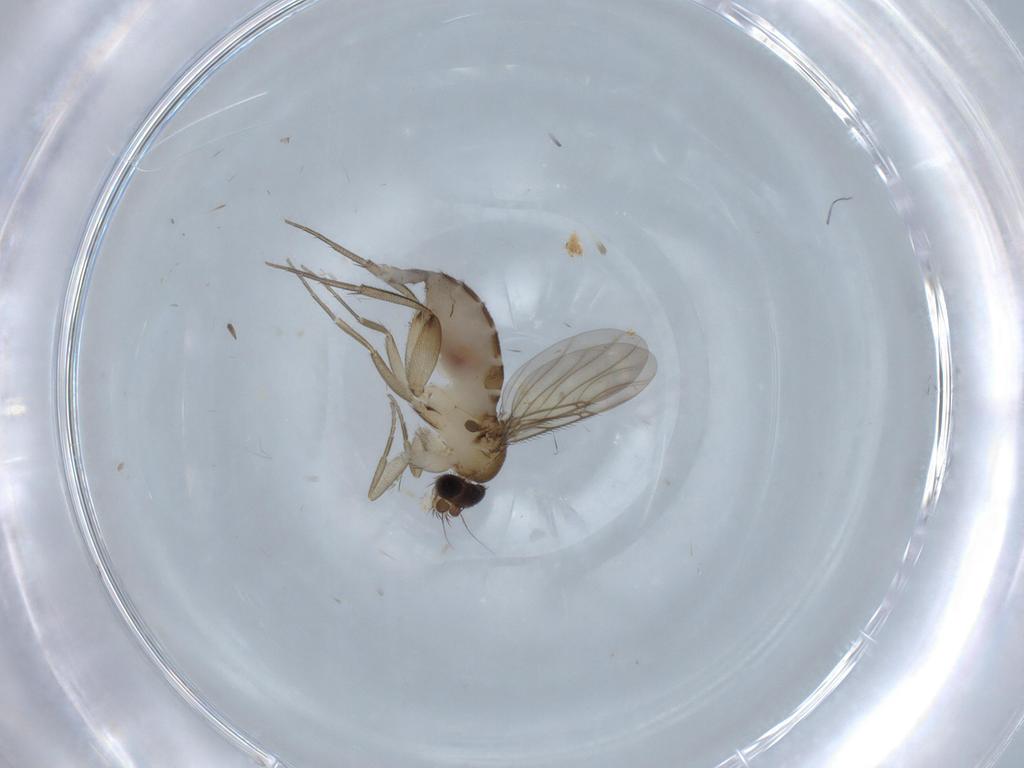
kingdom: Animalia
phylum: Arthropoda
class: Insecta
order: Diptera
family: Phoridae
